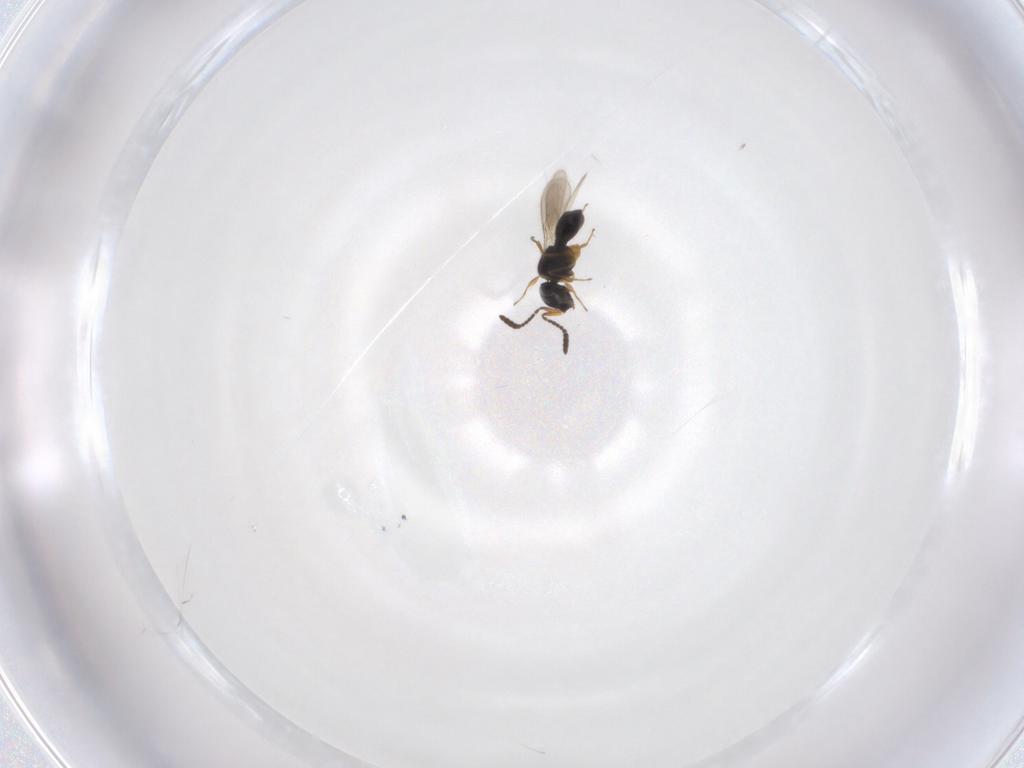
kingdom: Animalia
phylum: Arthropoda
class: Insecta
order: Hymenoptera
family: Scelionidae
